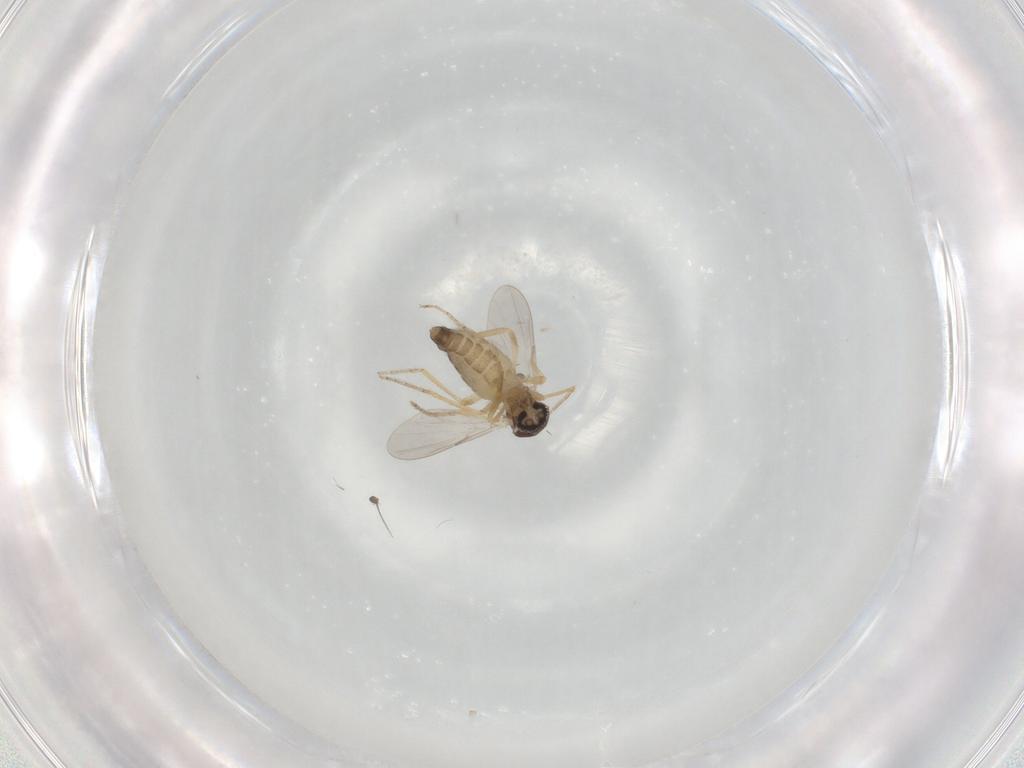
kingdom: Animalia
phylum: Arthropoda
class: Insecta
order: Diptera
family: Ceratopogonidae
